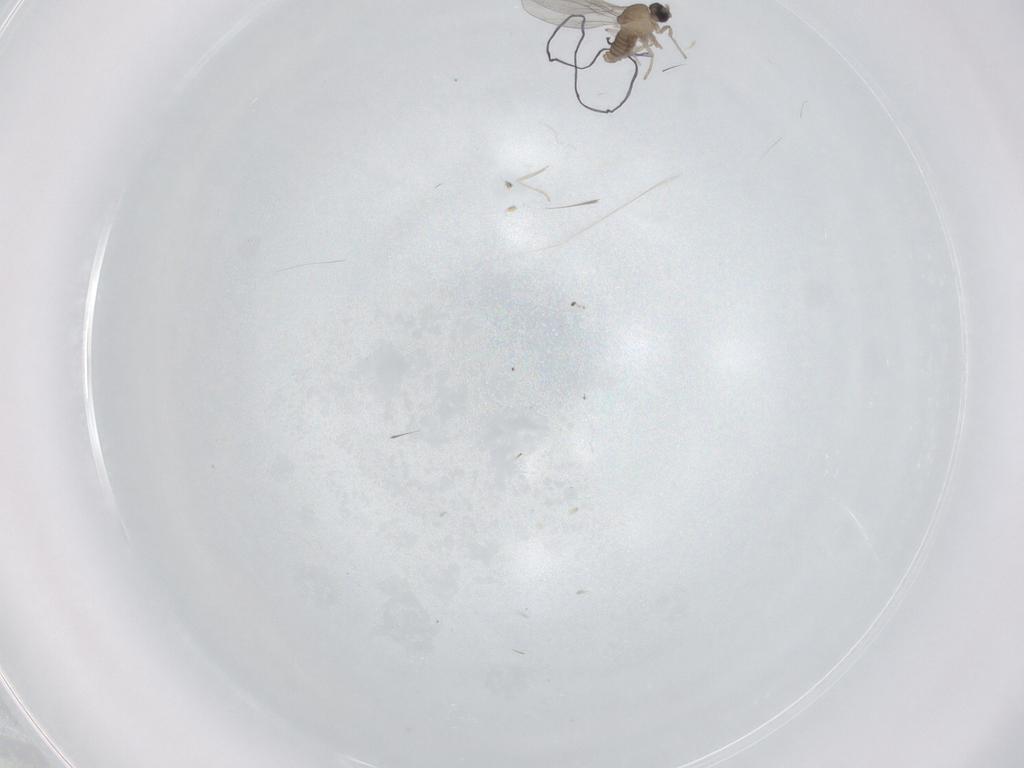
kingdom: Animalia
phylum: Arthropoda
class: Insecta
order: Diptera
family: Cecidomyiidae
